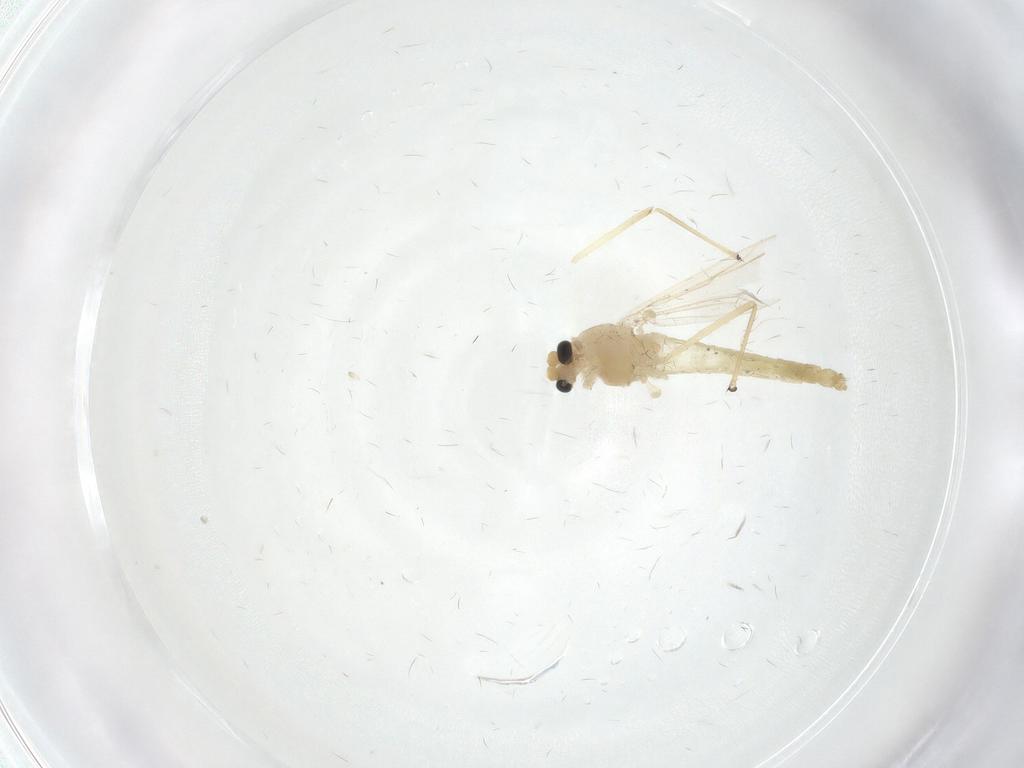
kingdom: Animalia
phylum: Arthropoda
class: Insecta
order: Diptera
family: Chironomidae
